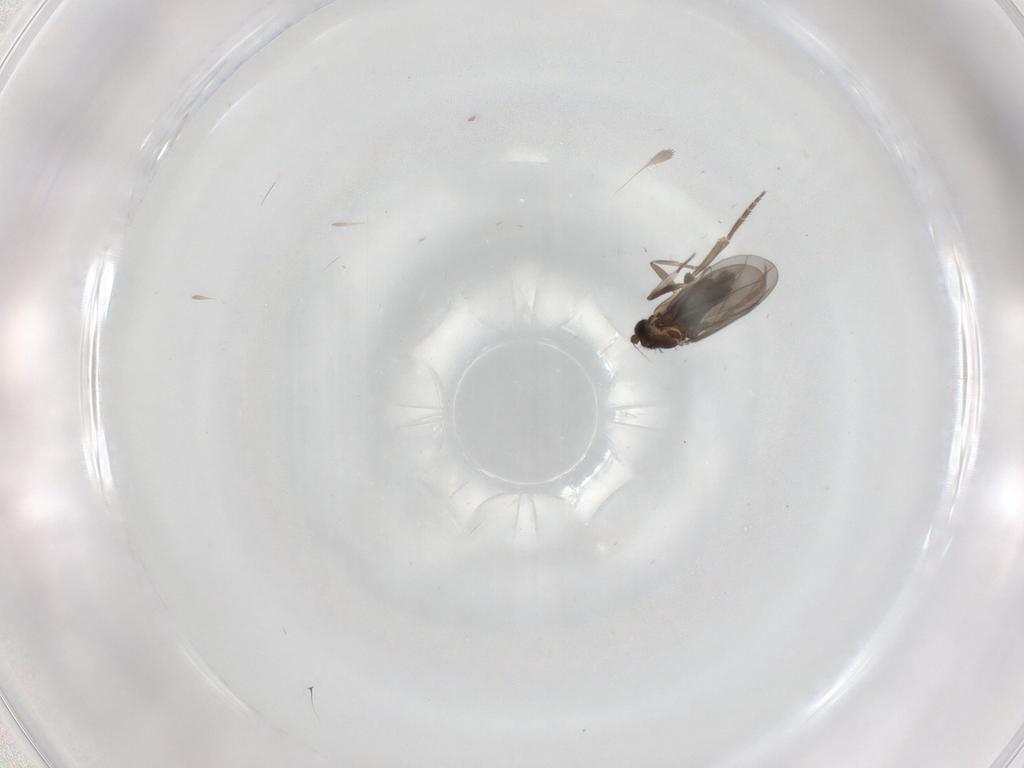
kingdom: Animalia
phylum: Arthropoda
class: Insecta
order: Diptera
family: Phoridae
